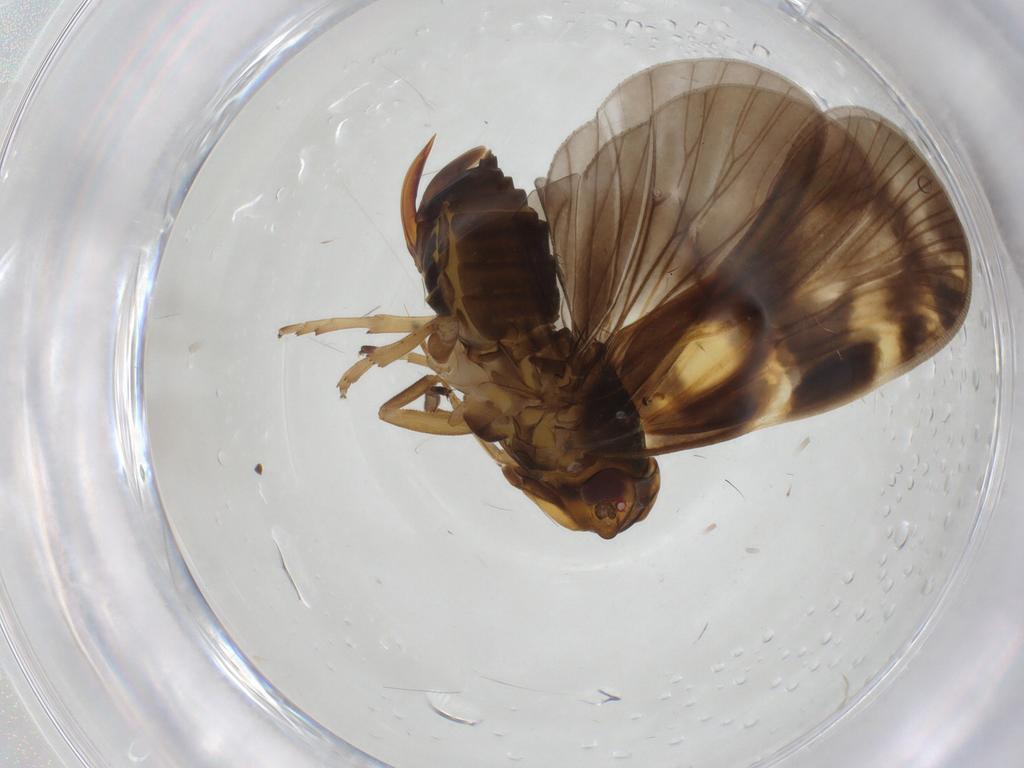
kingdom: Animalia
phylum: Arthropoda
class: Insecta
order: Hemiptera
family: Cixiidae
